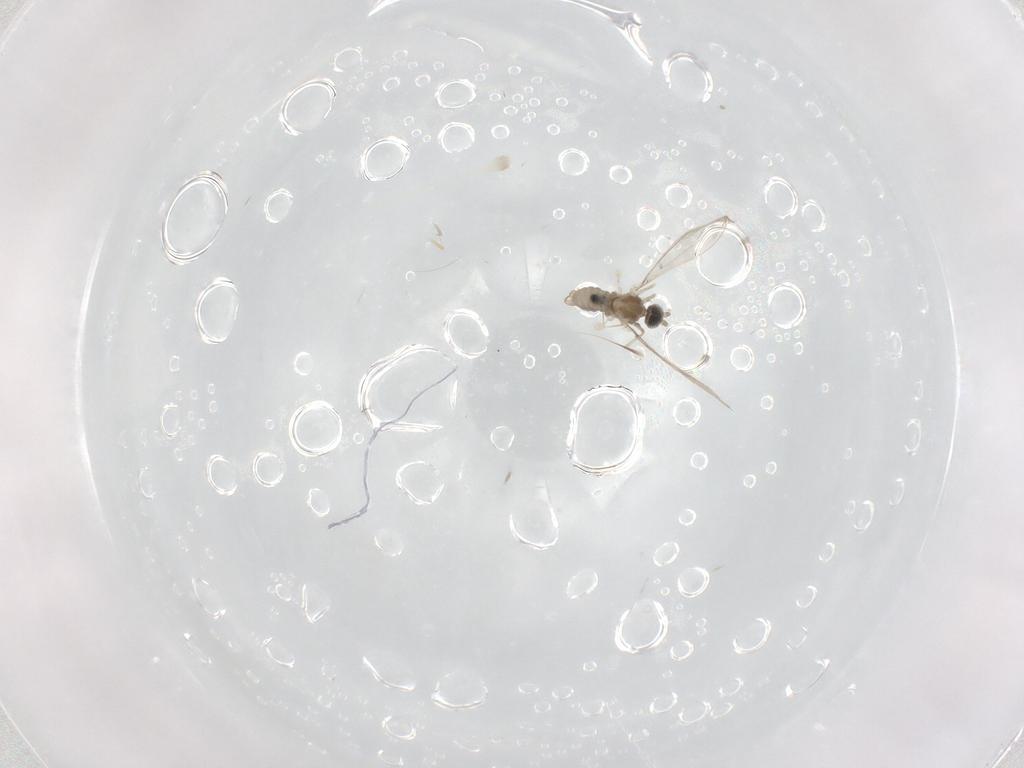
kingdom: Animalia
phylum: Arthropoda
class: Insecta
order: Diptera
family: Cecidomyiidae
